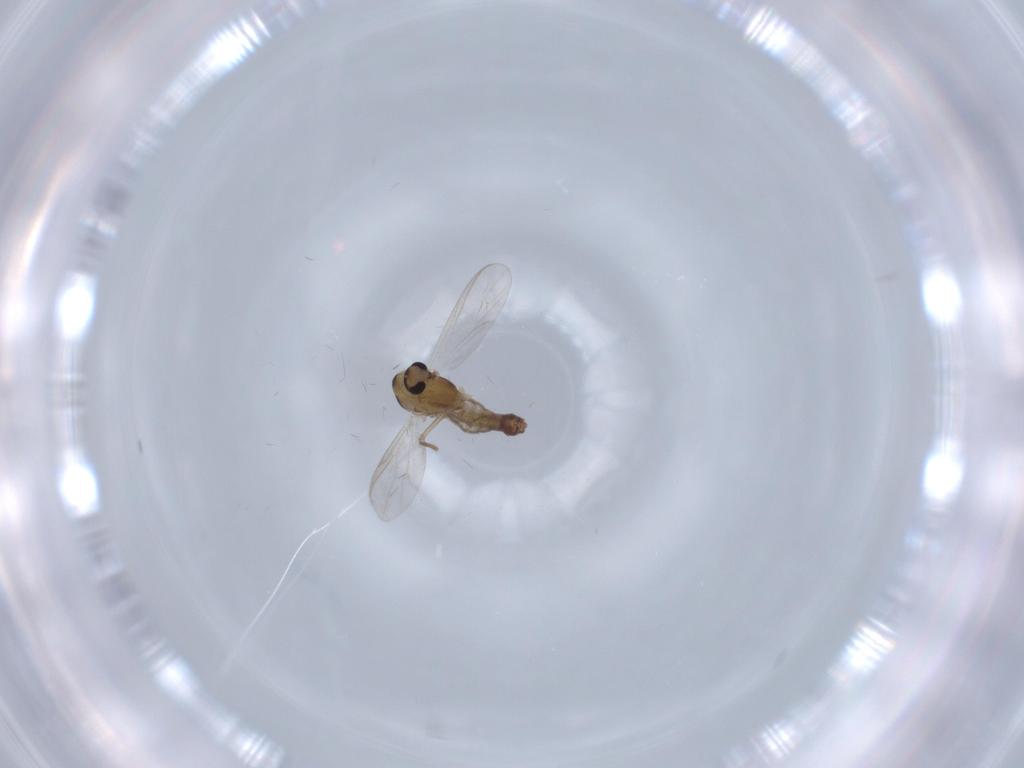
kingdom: Animalia
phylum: Arthropoda
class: Insecta
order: Diptera
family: Chironomidae
